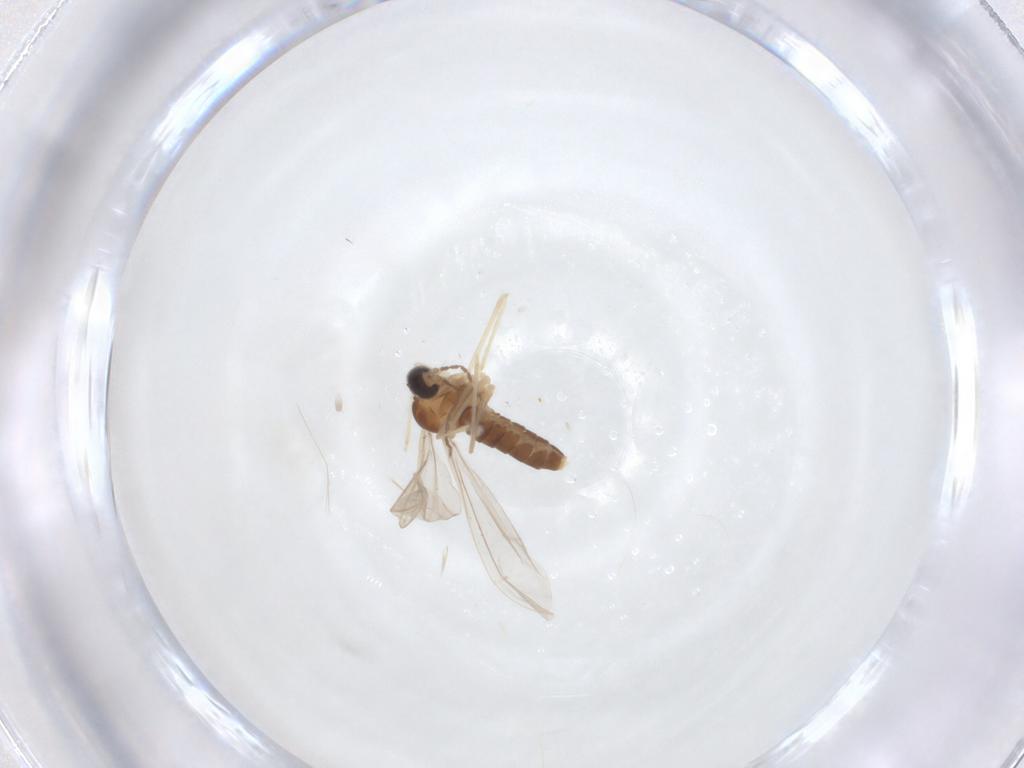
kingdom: Animalia
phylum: Arthropoda
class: Insecta
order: Diptera
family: Cecidomyiidae
